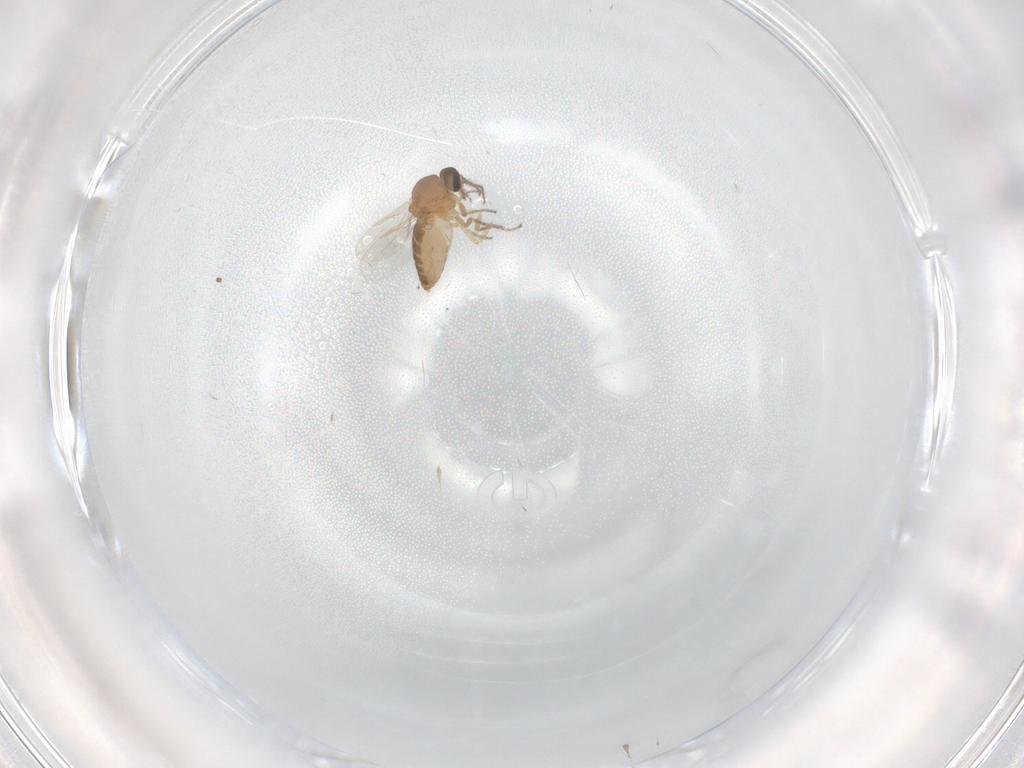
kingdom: Animalia
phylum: Arthropoda
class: Insecta
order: Diptera
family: Ceratopogonidae
